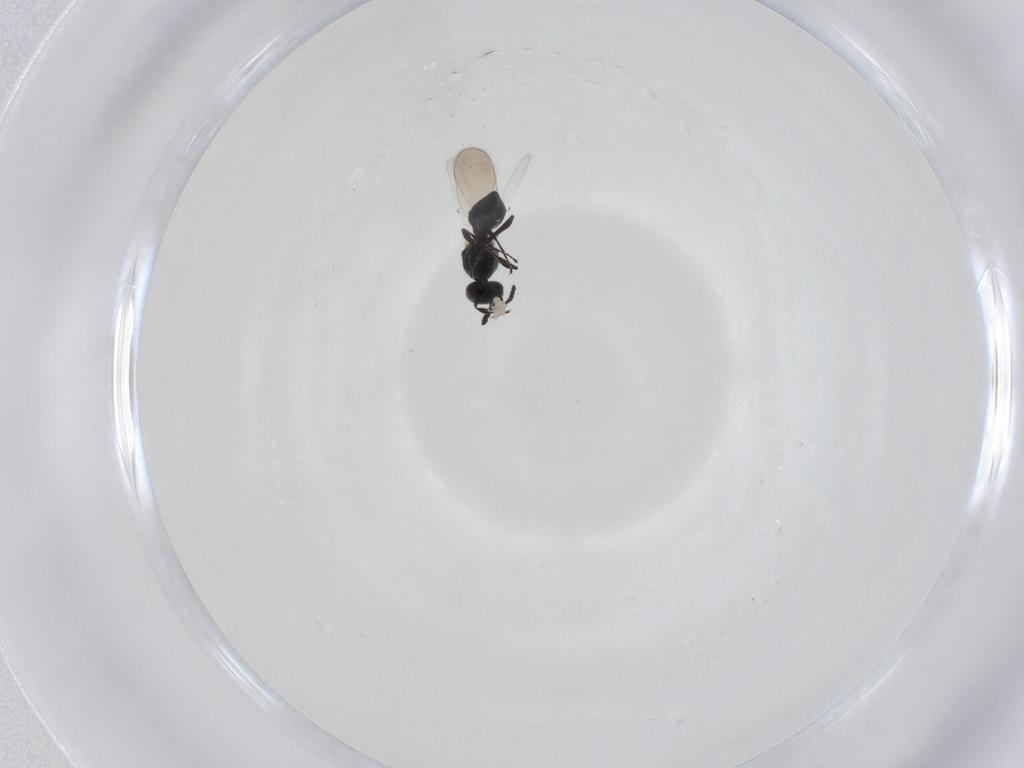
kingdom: Animalia
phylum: Arthropoda
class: Insecta
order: Hymenoptera
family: Platygastridae
